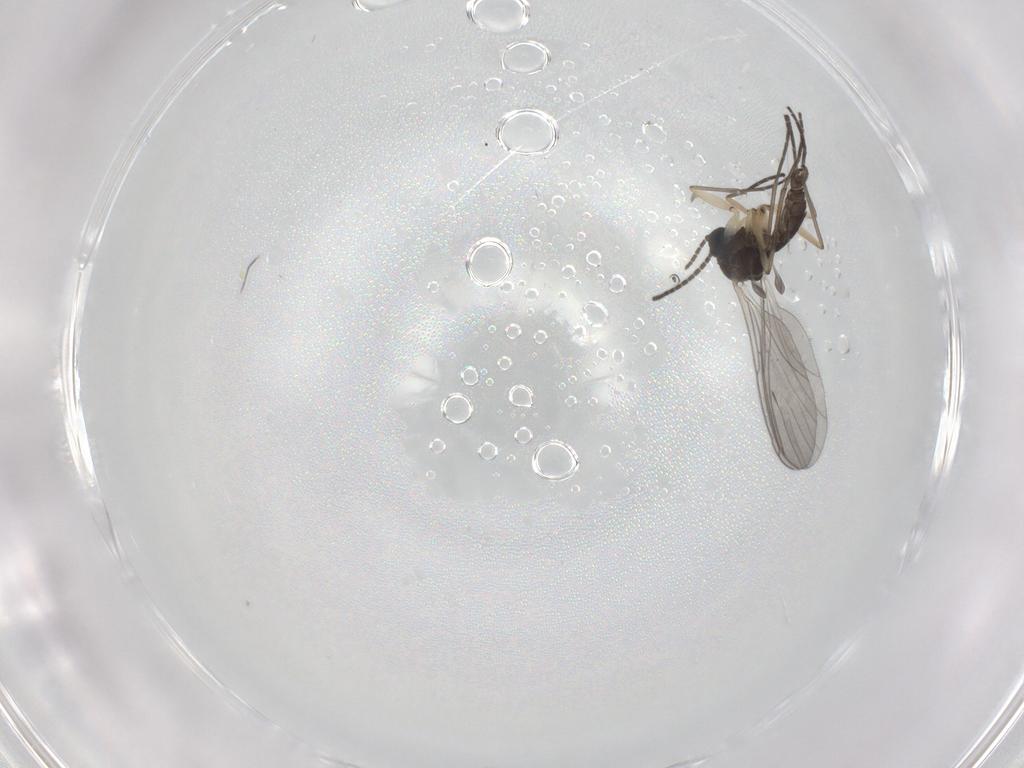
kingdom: Animalia
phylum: Arthropoda
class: Insecta
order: Diptera
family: Sciaridae
